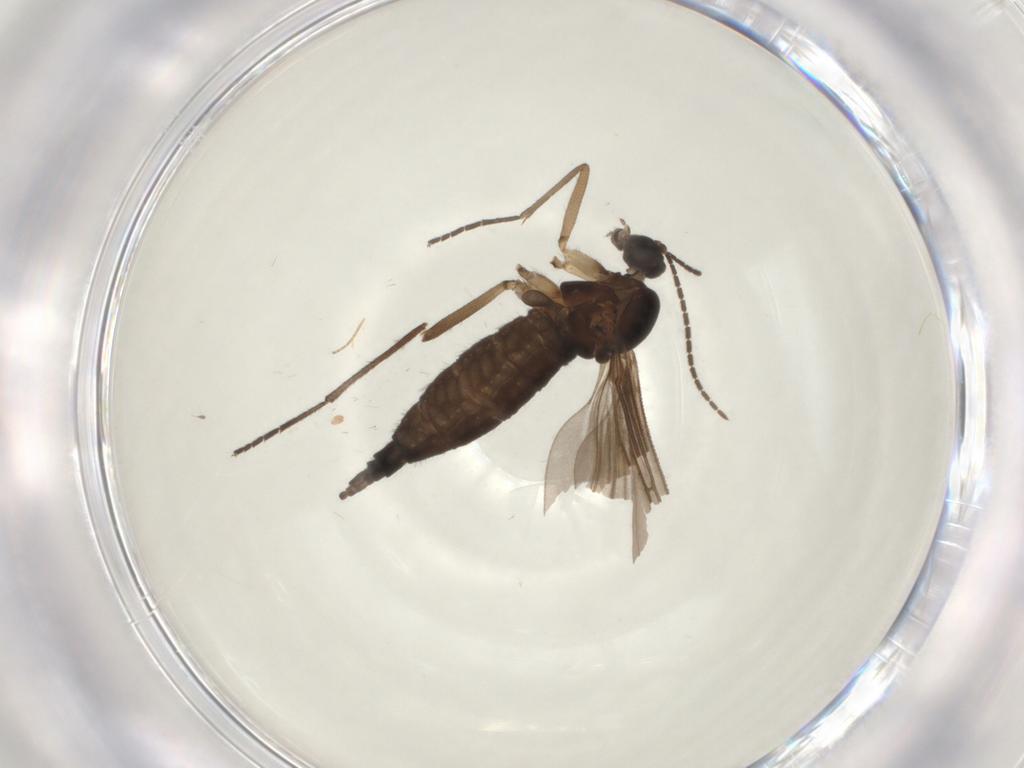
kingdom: Animalia
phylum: Arthropoda
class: Insecta
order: Diptera
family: Sciaridae
